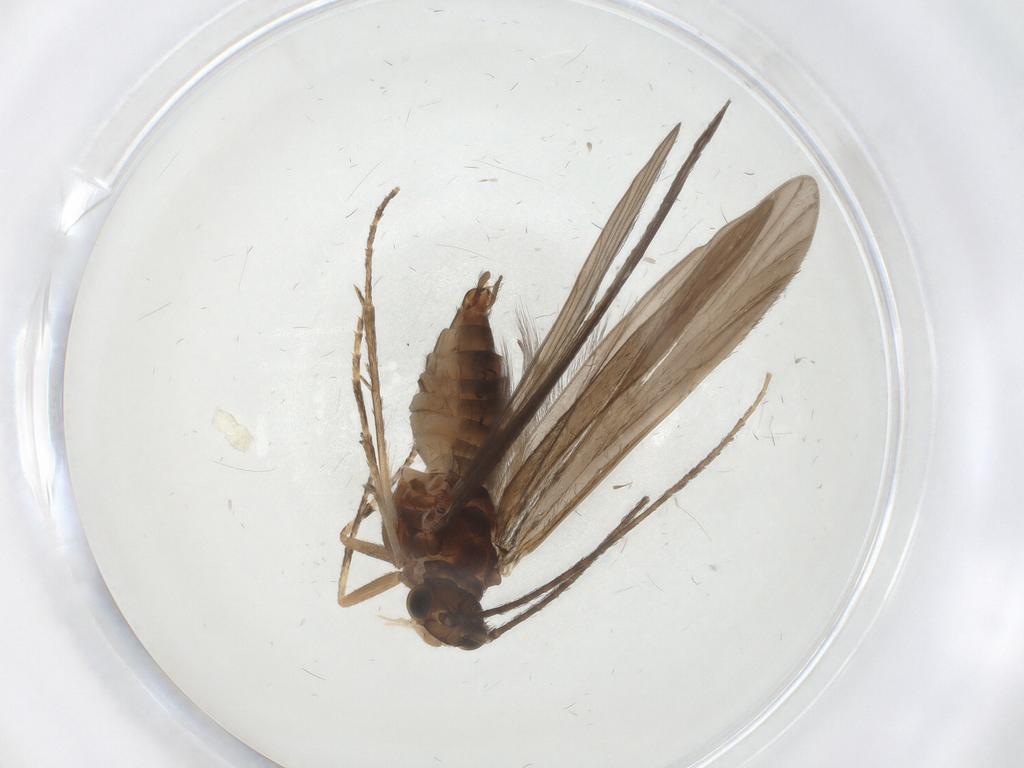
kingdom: Animalia
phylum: Arthropoda
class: Insecta
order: Trichoptera
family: Xiphocentronidae
